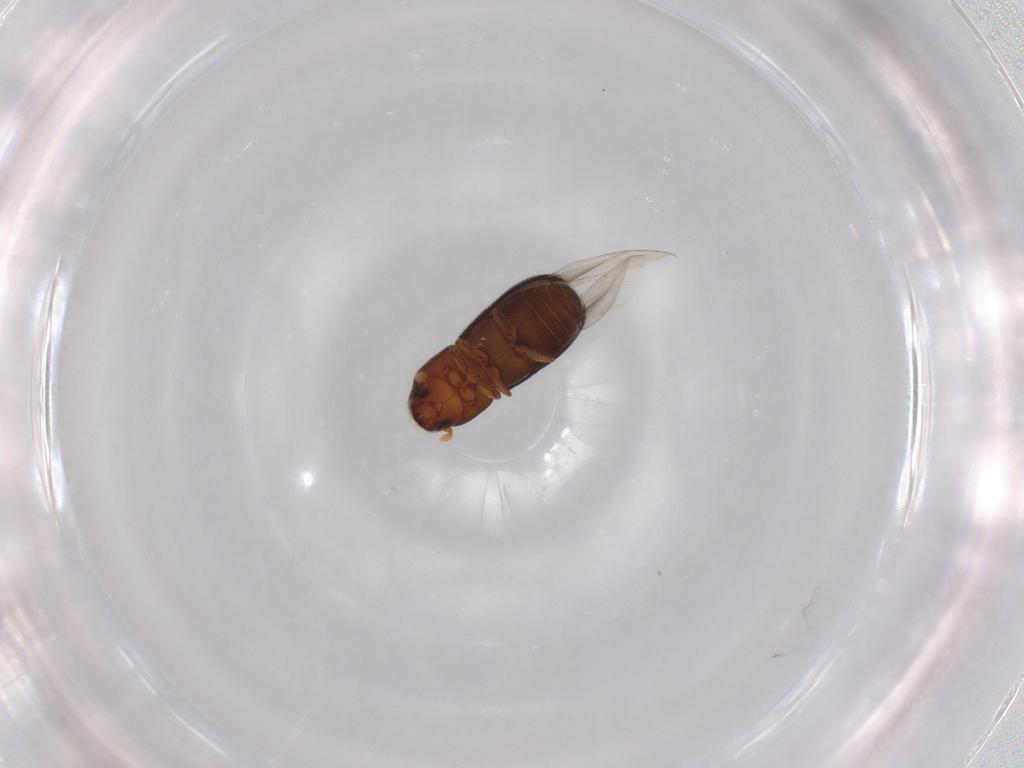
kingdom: Animalia
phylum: Arthropoda
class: Insecta
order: Coleoptera
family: Curculionidae
